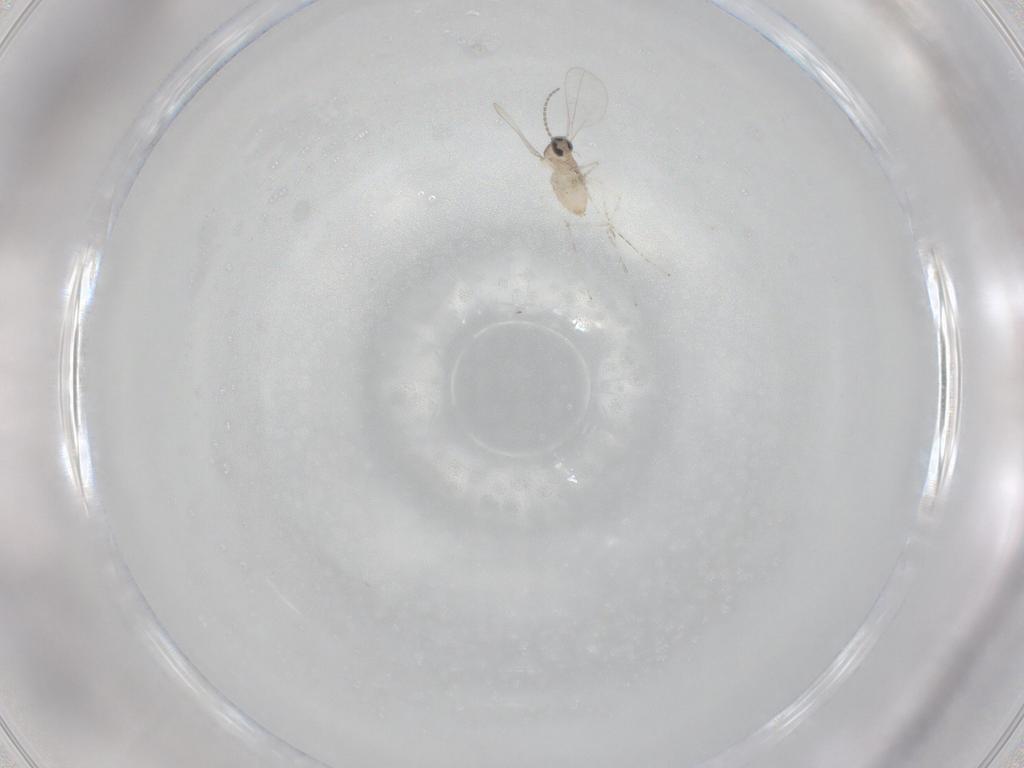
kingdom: Animalia
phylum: Arthropoda
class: Insecta
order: Diptera
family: Cecidomyiidae
